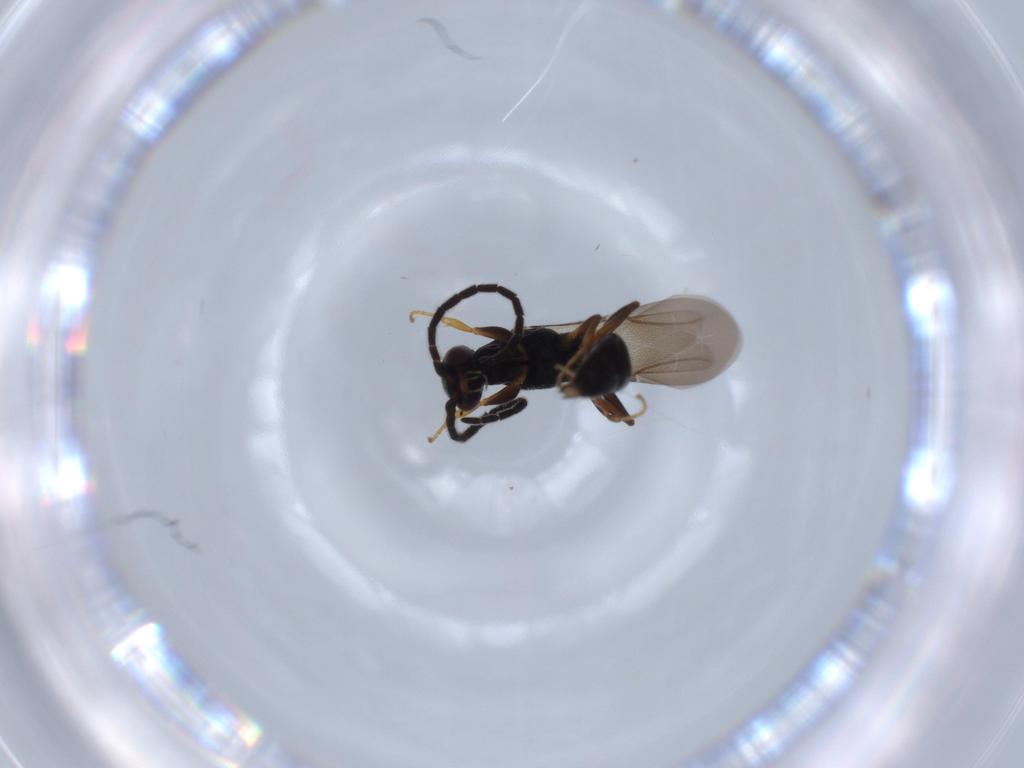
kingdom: Animalia
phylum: Arthropoda
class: Insecta
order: Hymenoptera
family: Bethylidae
